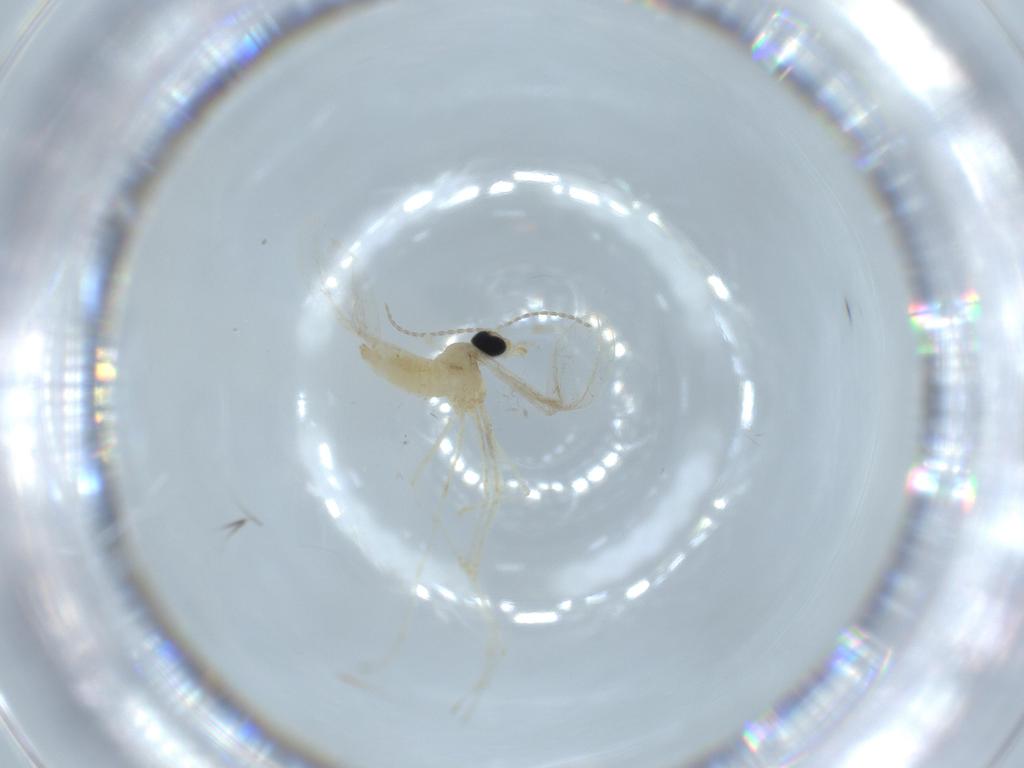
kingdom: Animalia
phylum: Arthropoda
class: Insecta
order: Diptera
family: Cecidomyiidae
